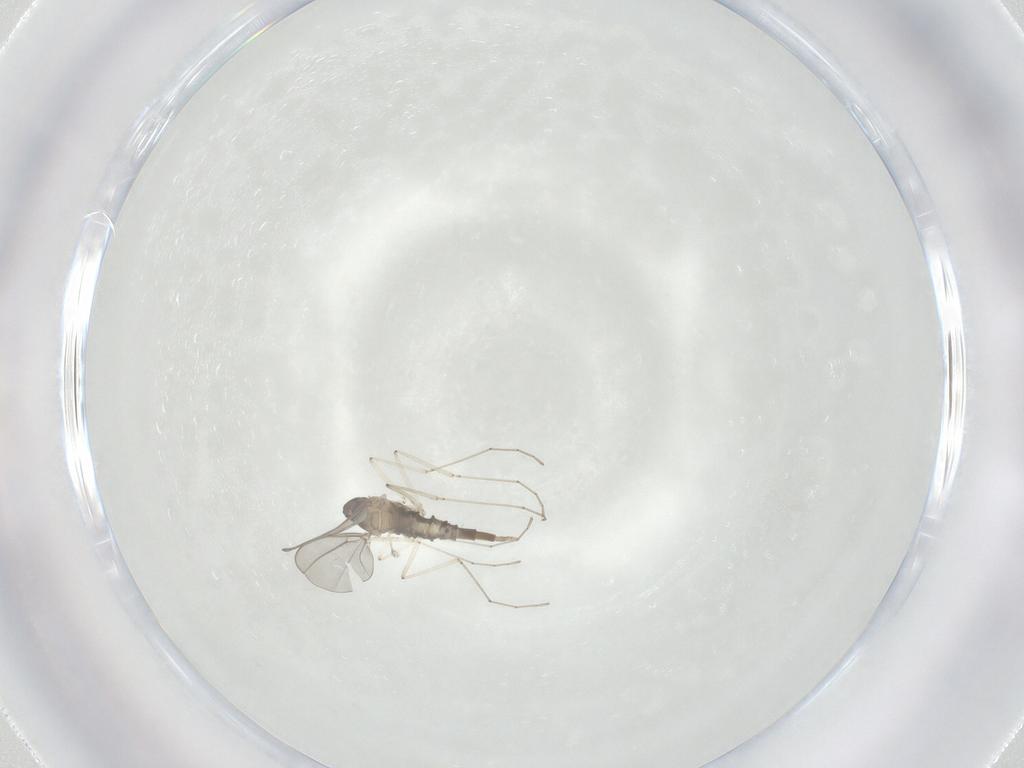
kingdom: Animalia
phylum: Arthropoda
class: Insecta
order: Diptera
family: Cecidomyiidae
